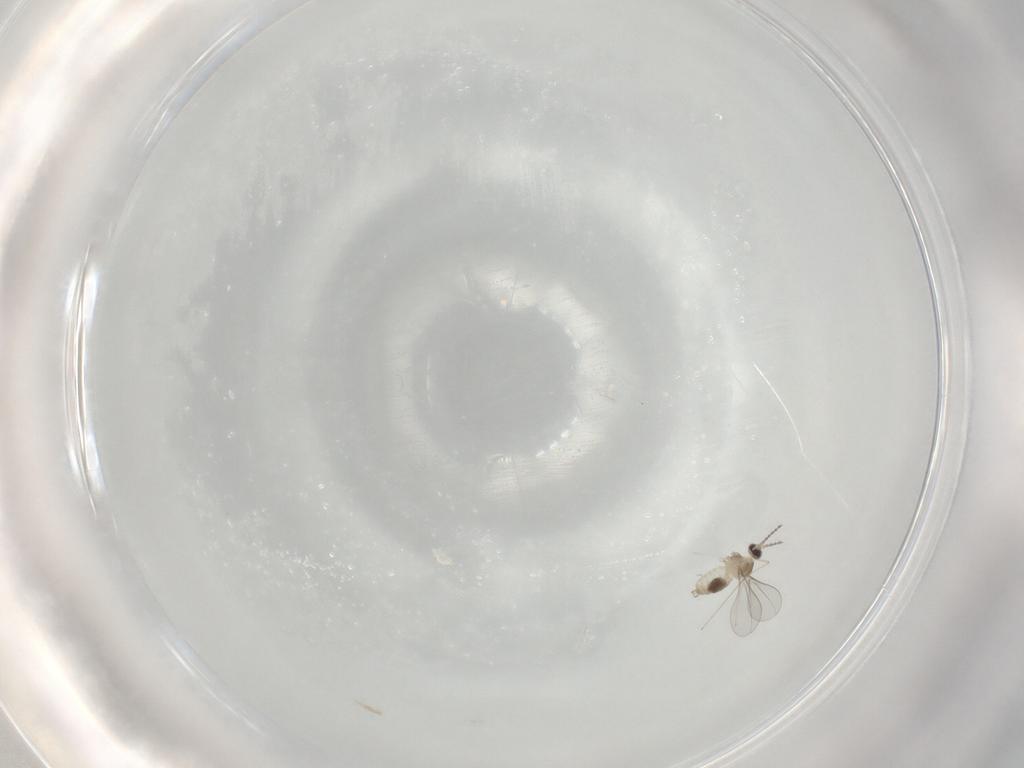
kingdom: Animalia
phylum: Arthropoda
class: Insecta
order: Diptera
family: Cecidomyiidae
